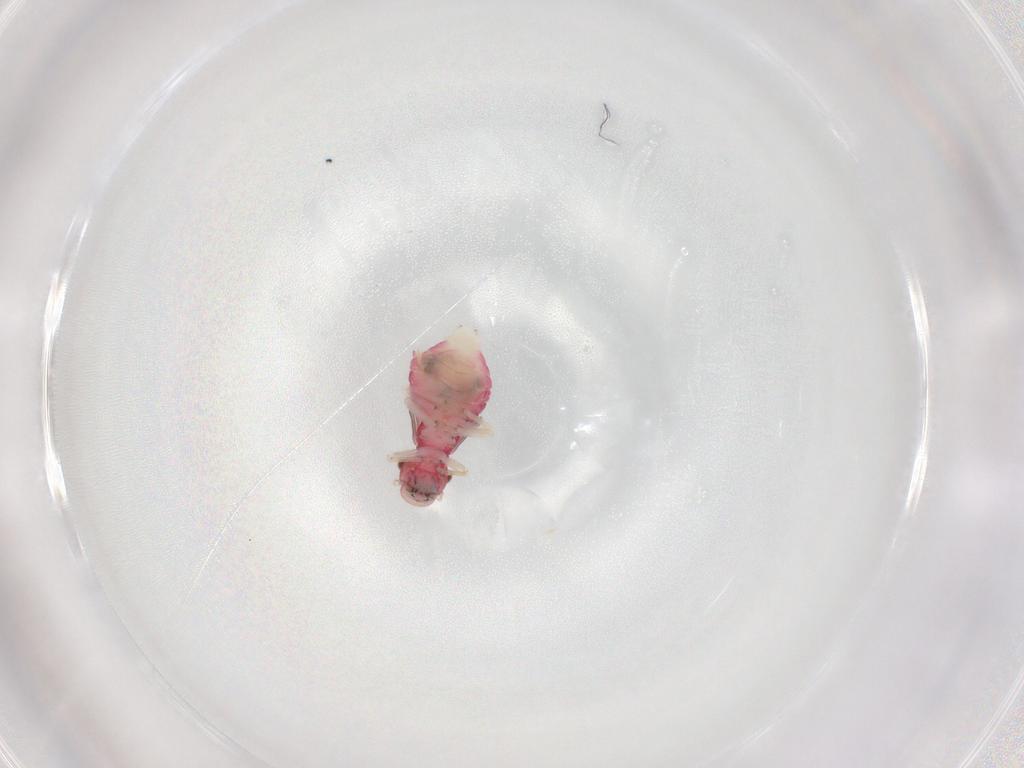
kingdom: Animalia
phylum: Arthropoda
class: Insecta
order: Psocodea
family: Caeciliusidae
